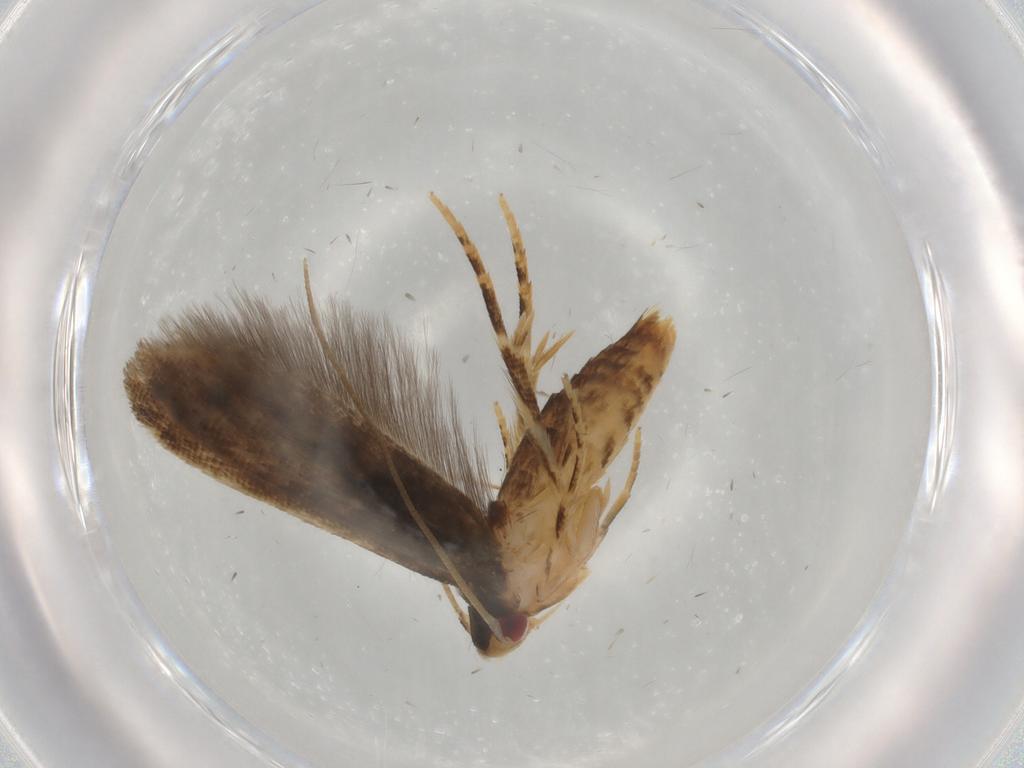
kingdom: Animalia
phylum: Arthropoda
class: Insecta
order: Lepidoptera
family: Momphidae
